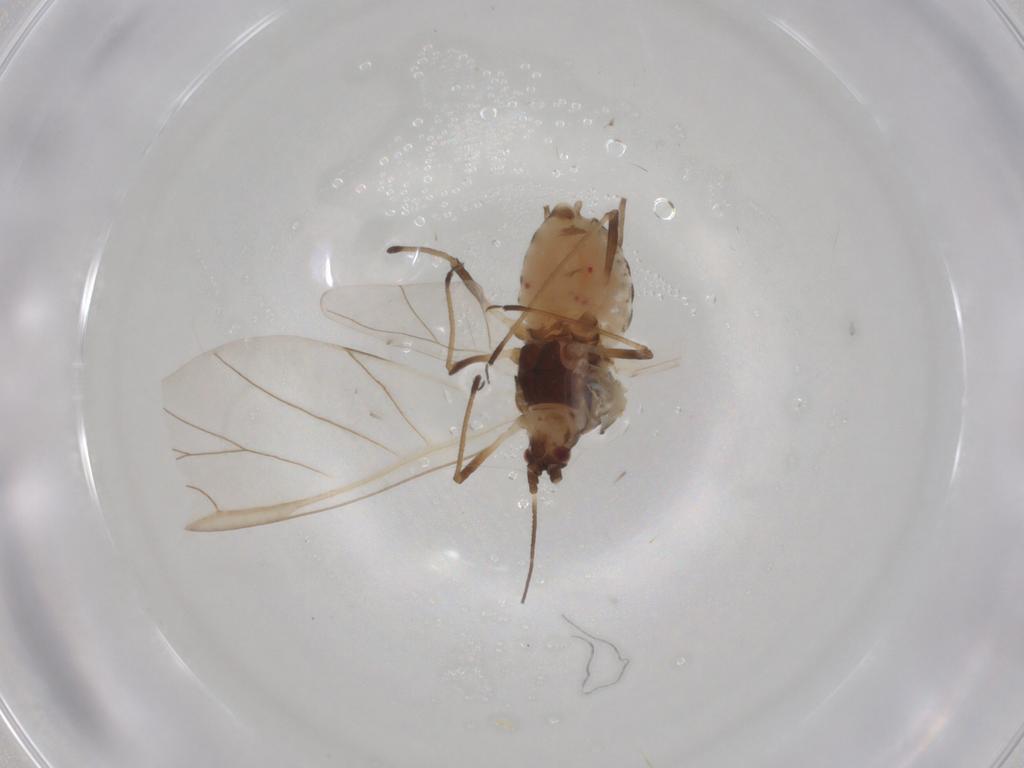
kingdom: Animalia
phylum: Arthropoda
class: Insecta
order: Hemiptera
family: Aphididae
